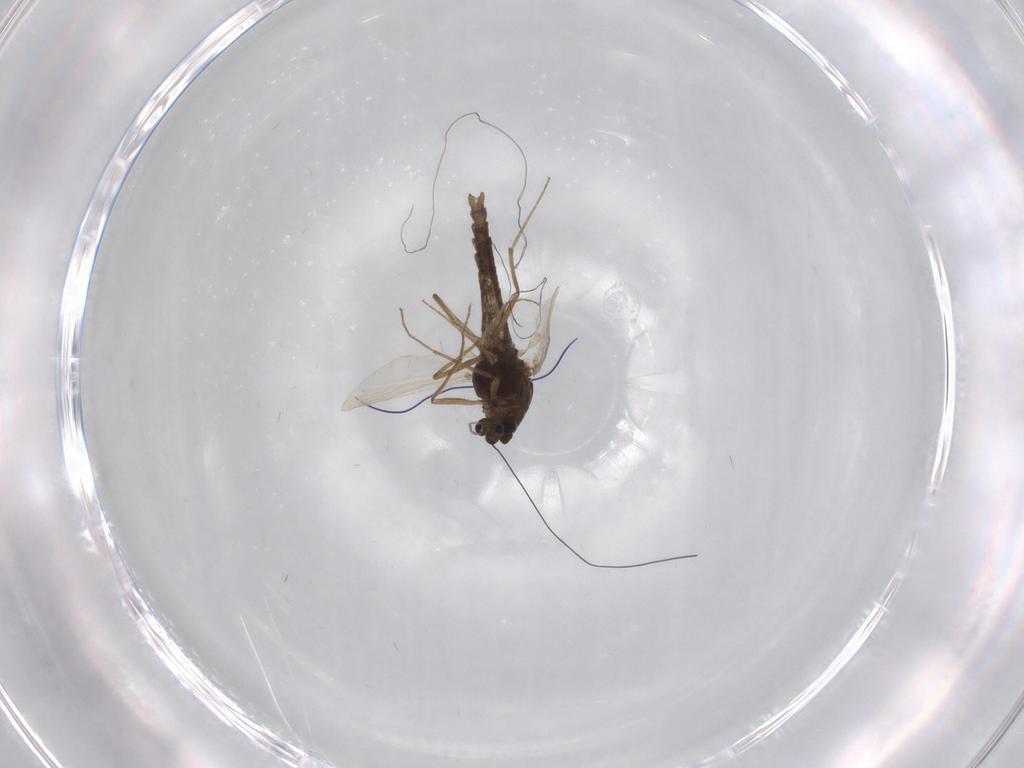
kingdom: Animalia
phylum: Arthropoda
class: Insecta
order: Diptera
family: Chironomidae
